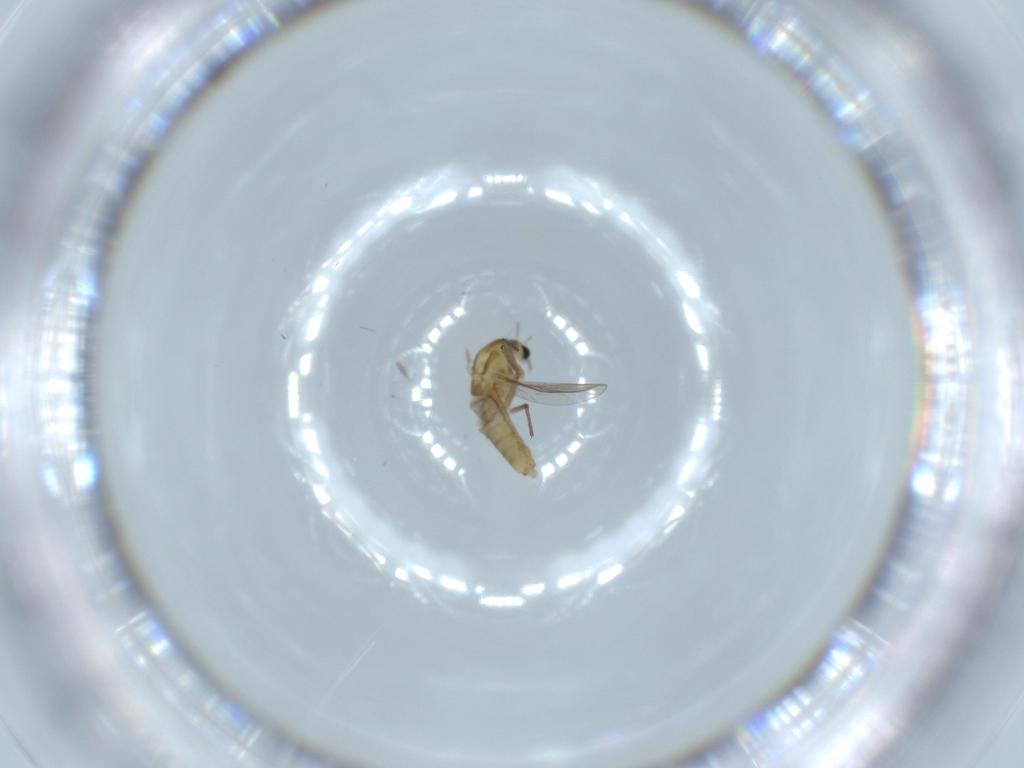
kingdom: Animalia
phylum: Arthropoda
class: Insecta
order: Diptera
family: Chironomidae
